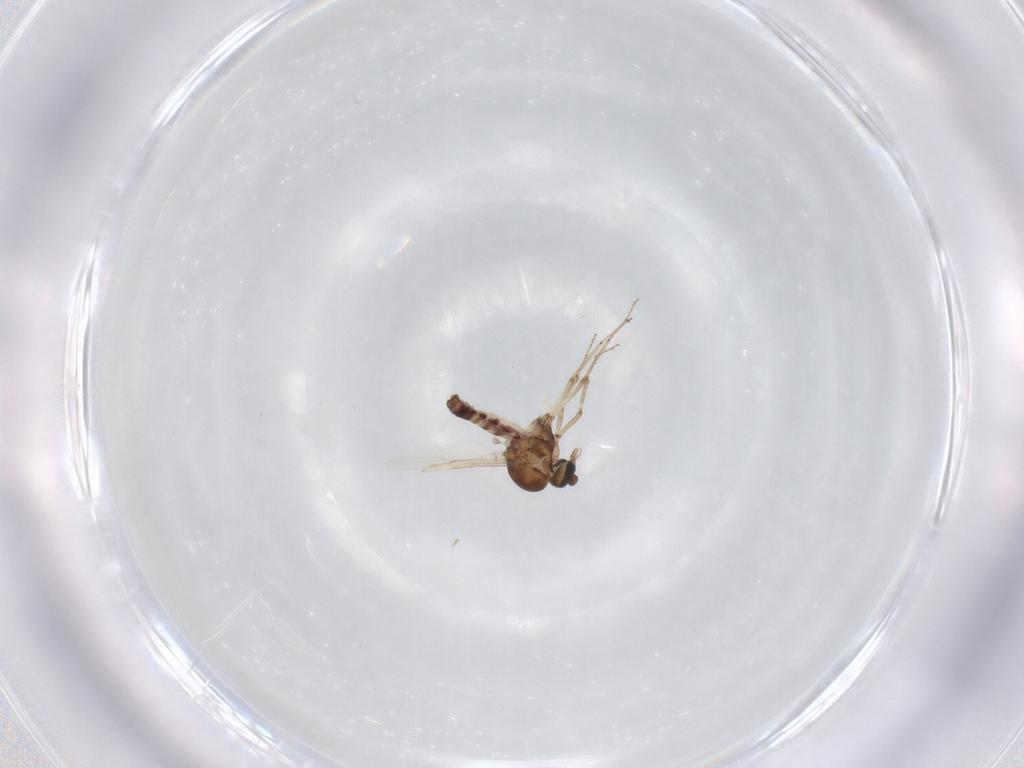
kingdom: Animalia
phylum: Arthropoda
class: Insecta
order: Diptera
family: Ceratopogonidae
